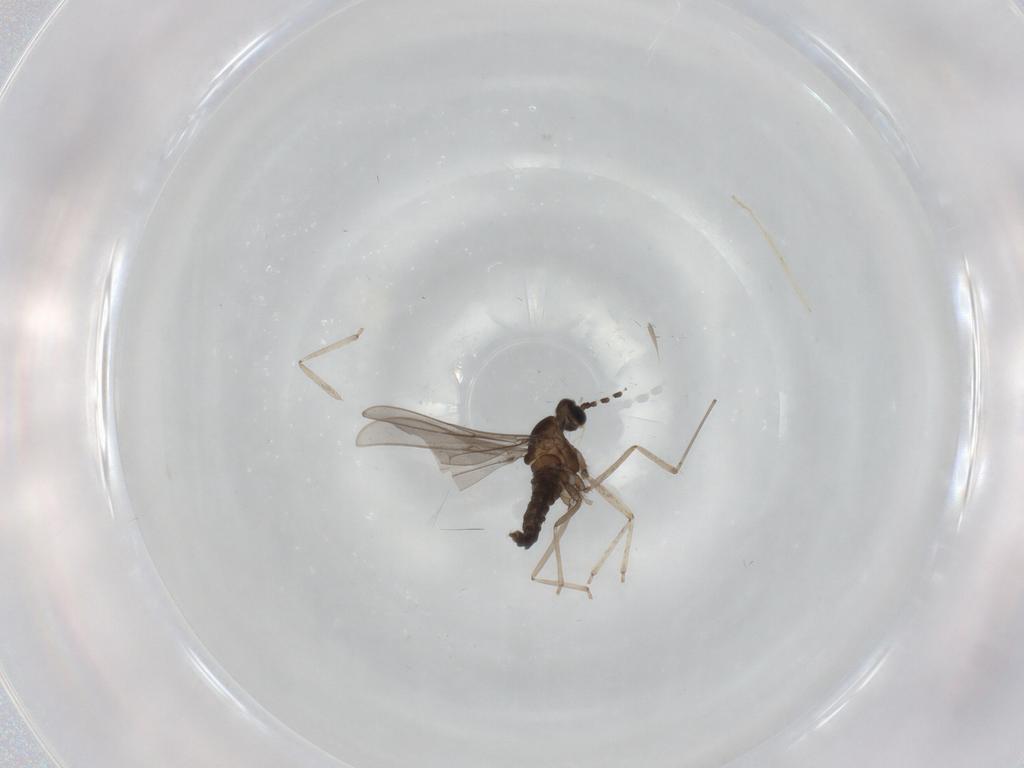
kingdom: Animalia
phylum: Arthropoda
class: Insecta
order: Diptera
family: Cecidomyiidae
